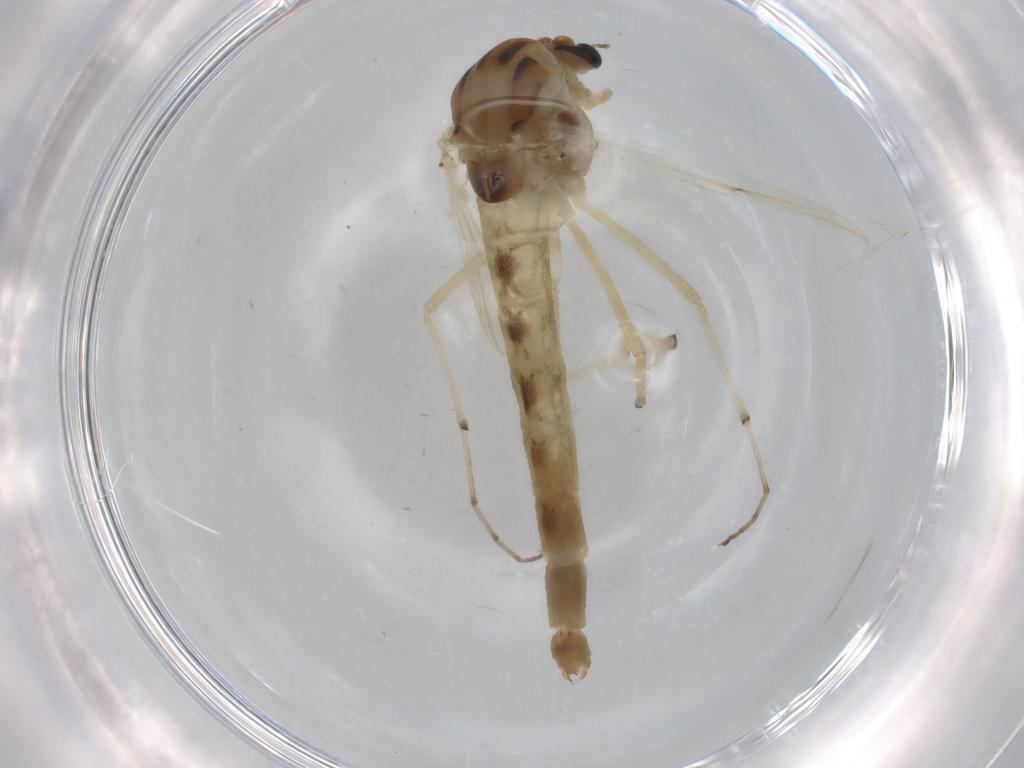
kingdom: Animalia
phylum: Arthropoda
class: Insecta
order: Diptera
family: Chironomidae
